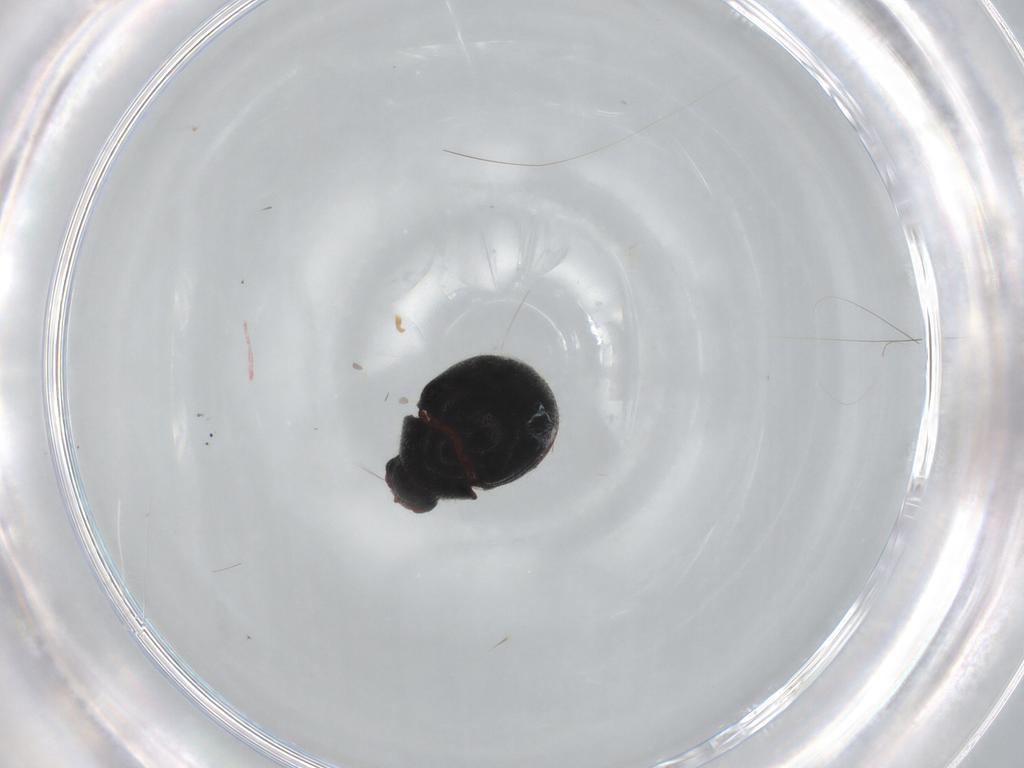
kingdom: Animalia
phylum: Arthropoda
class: Insecta
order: Coleoptera
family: Ptinidae
